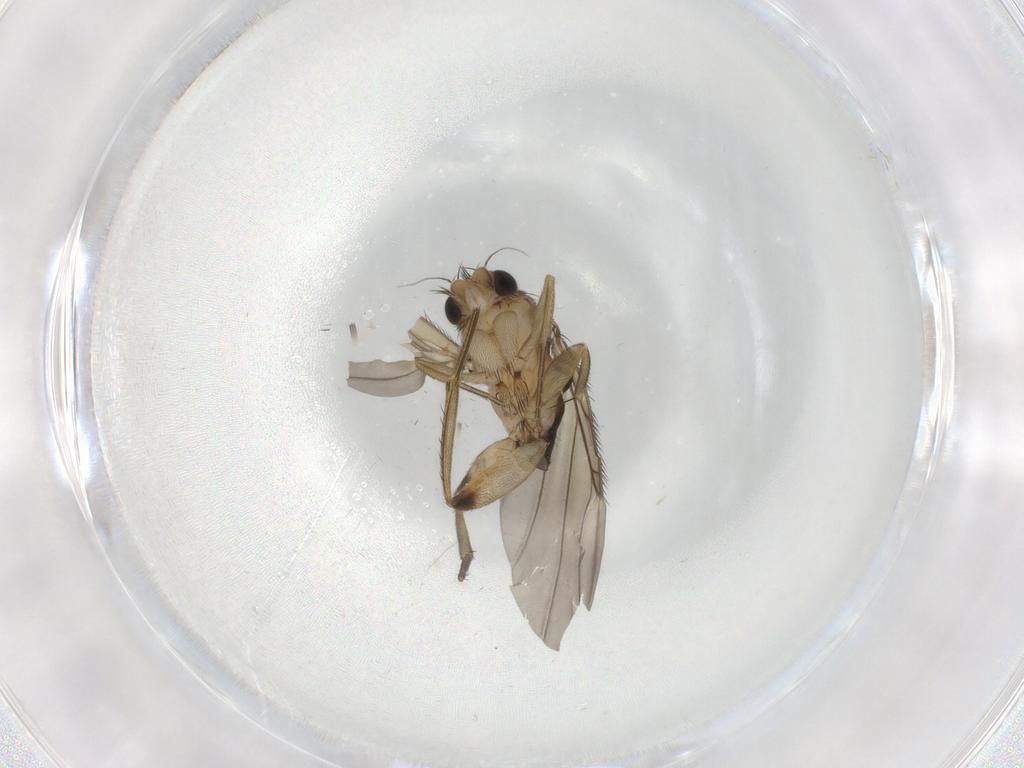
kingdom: Animalia
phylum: Arthropoda
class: Insecta
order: Diptera
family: Phoridae
